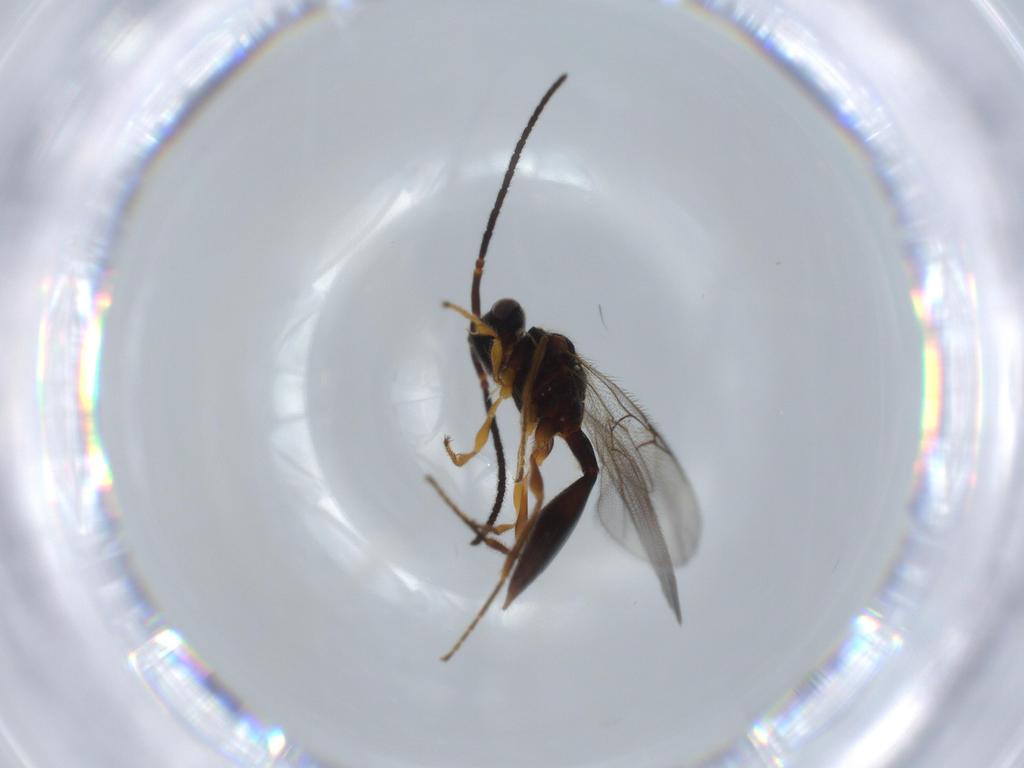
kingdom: Animalia
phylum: Arthropoda
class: Insecta
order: Hymenoptera
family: Diapriidae
